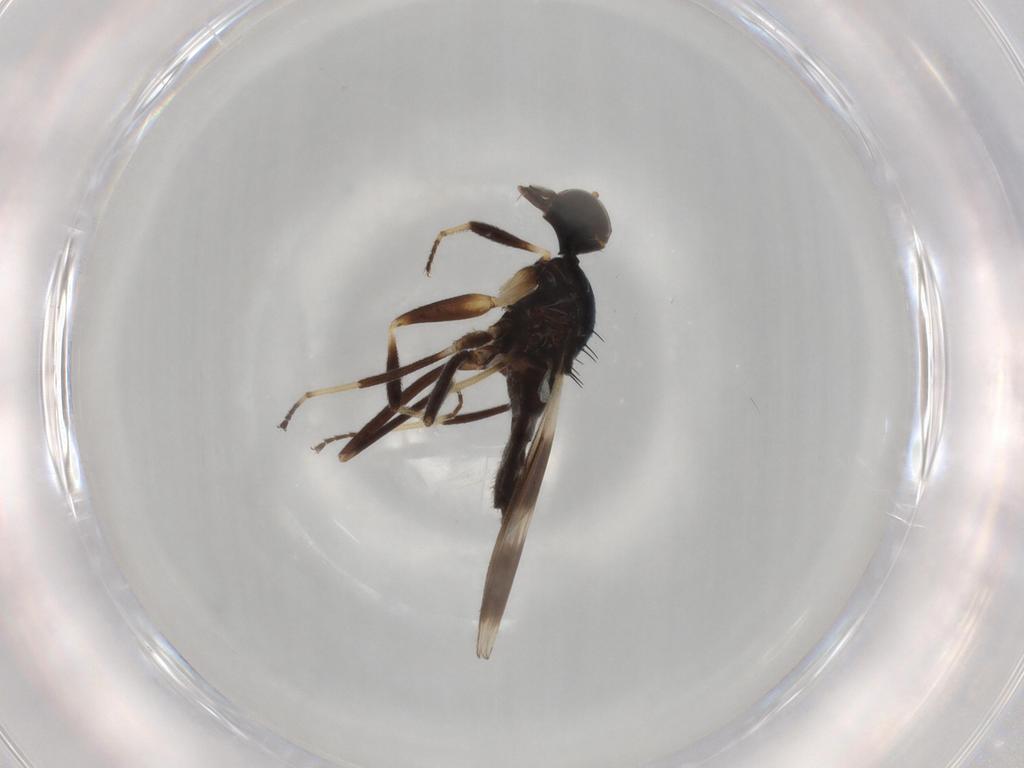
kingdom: Animalia
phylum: Arthropoda
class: Insecta
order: Diptera
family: Hybotidae
